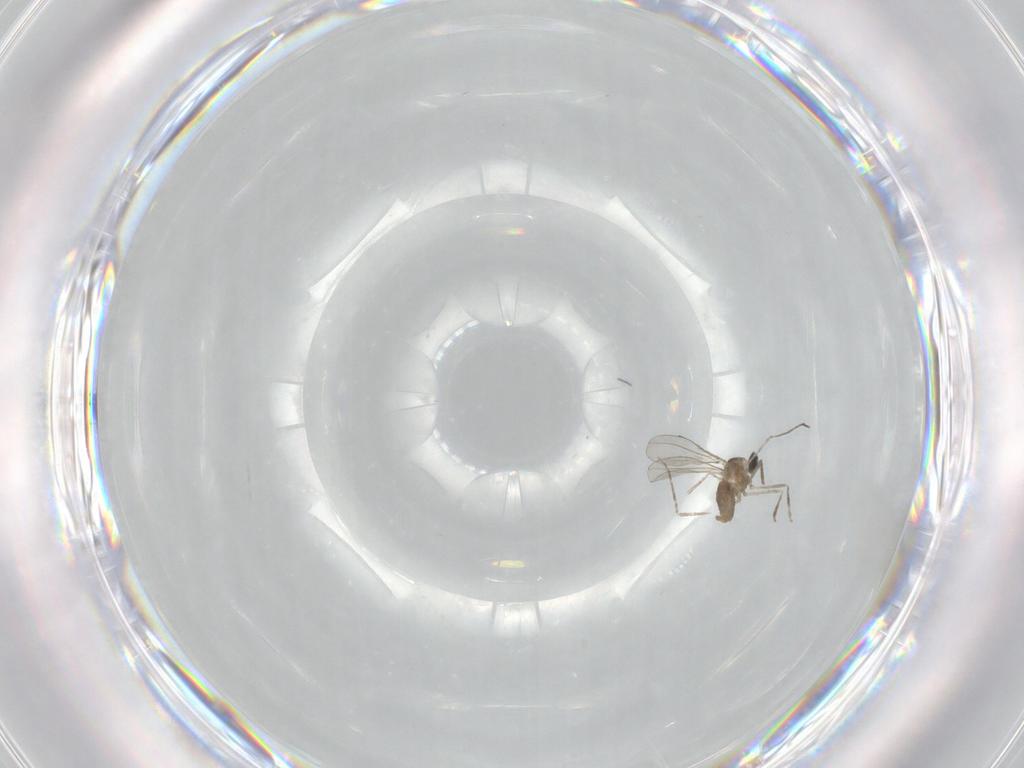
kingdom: Animalia
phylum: Arthropoda
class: Insecta
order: Diptera
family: Cecidomyiidae
